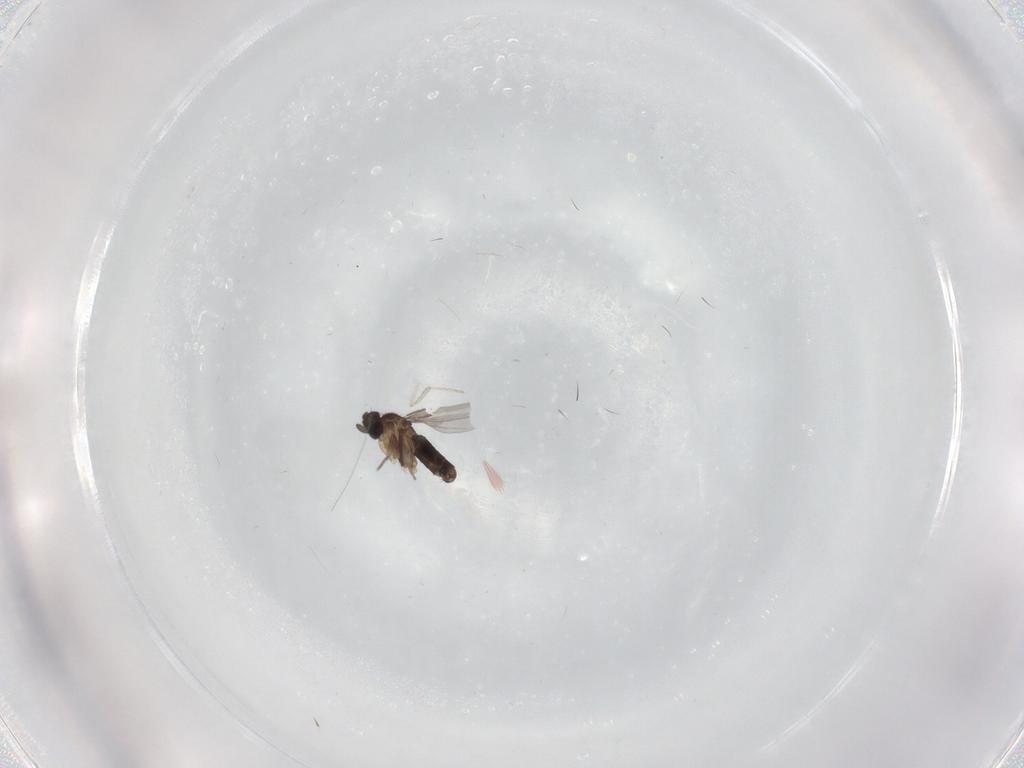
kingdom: Animalia
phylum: Arthropoda
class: Insecta
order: Diptera
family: Cecidomyiidae
